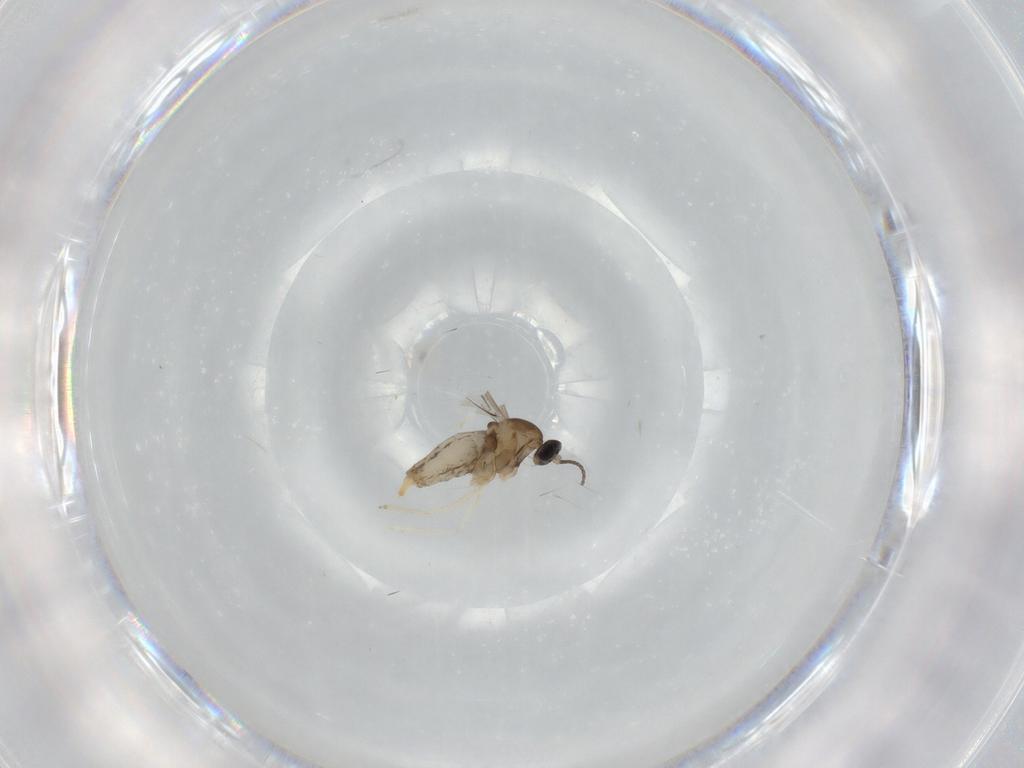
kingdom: Animalia
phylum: Arthropoda
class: Insecta
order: Diptera
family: Cecidomyiidae
